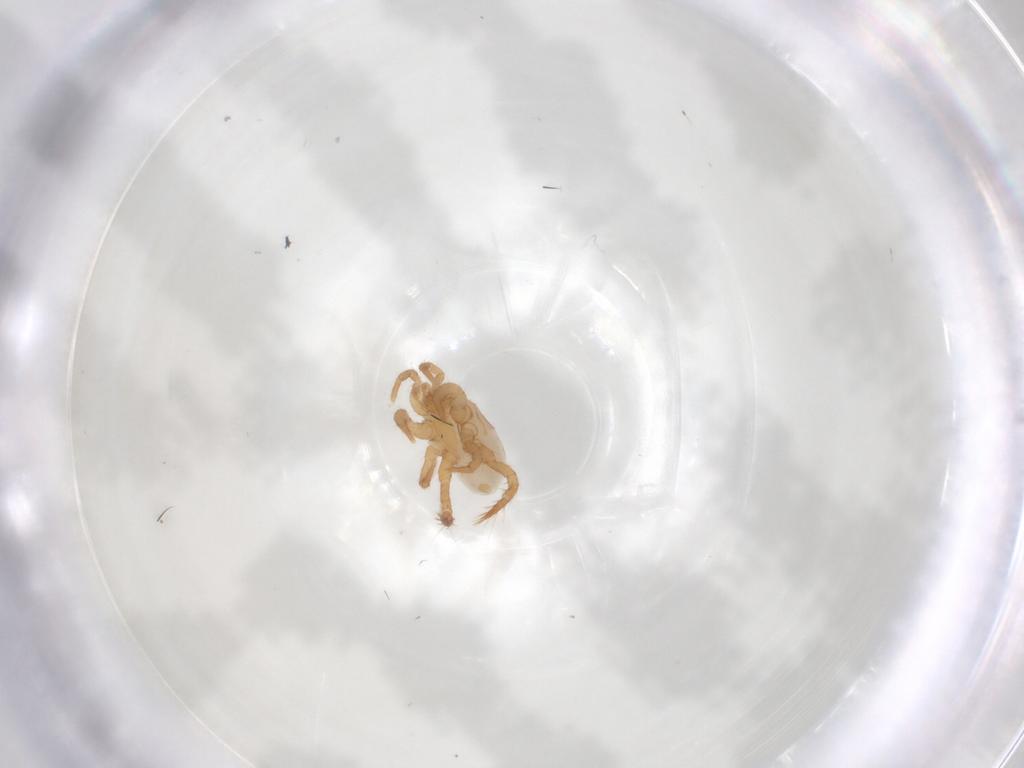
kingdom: Animalia
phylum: Arthropoda
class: Arachnida
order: Mesostigmata
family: Parasitidae
